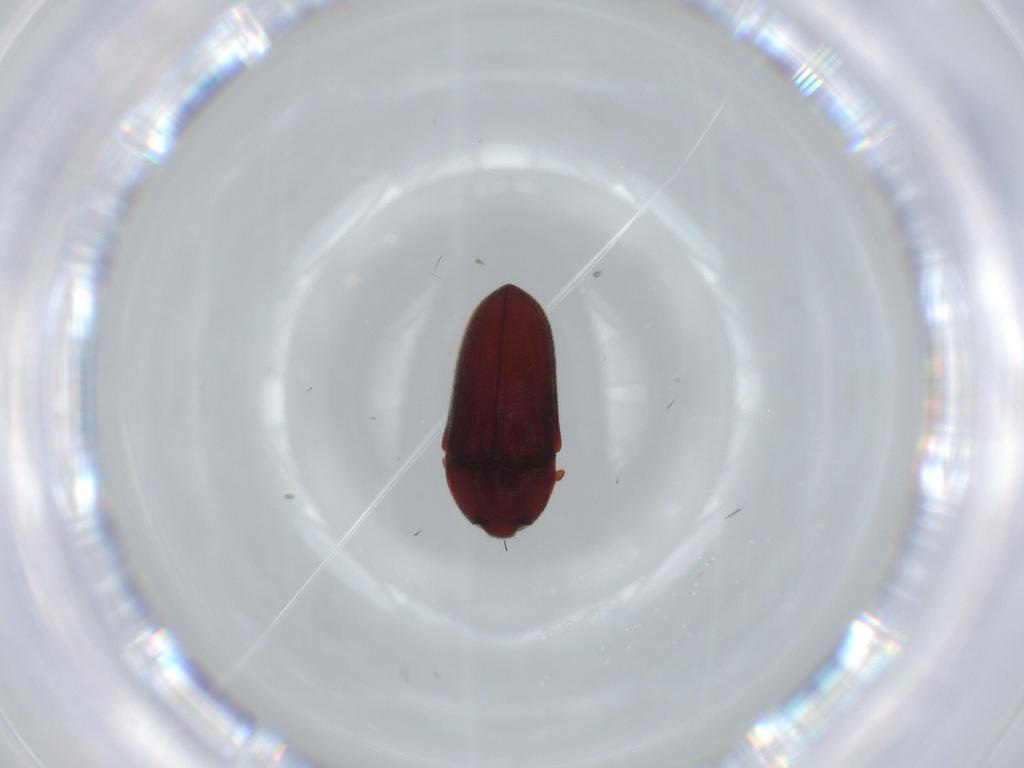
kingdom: Animalia
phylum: Arthropoda
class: Insecta
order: Coleoptera
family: Throscidae
